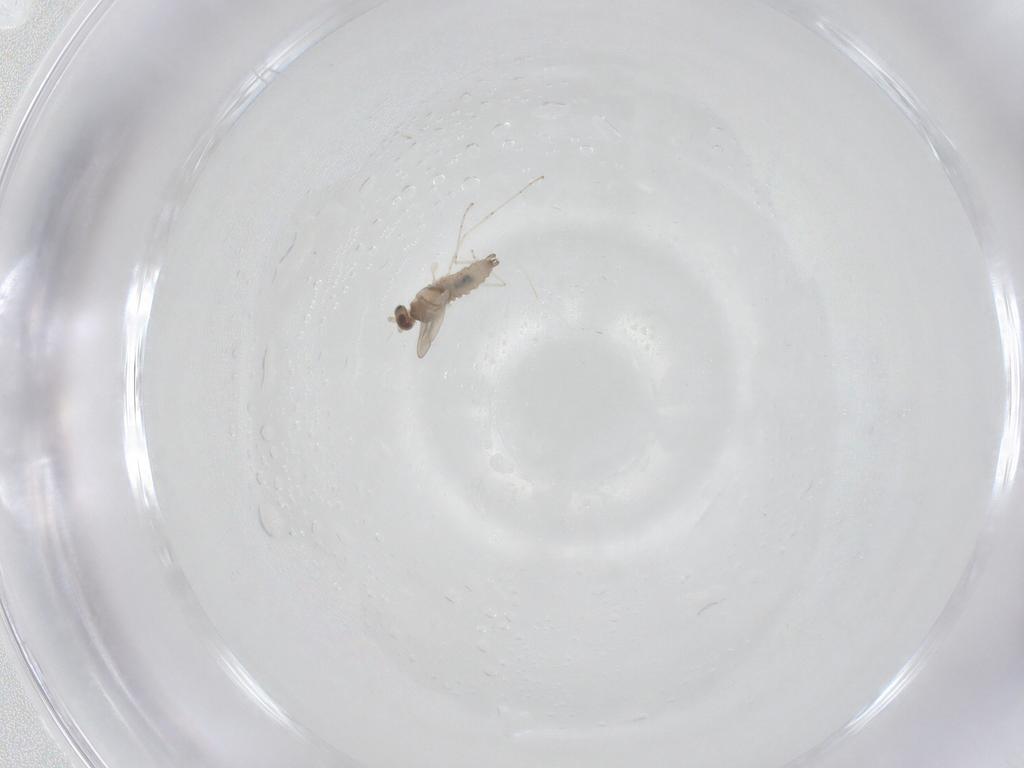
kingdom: Animalia
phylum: Arthropoda
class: Insecta
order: Diptera
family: Cecidomyiidae
